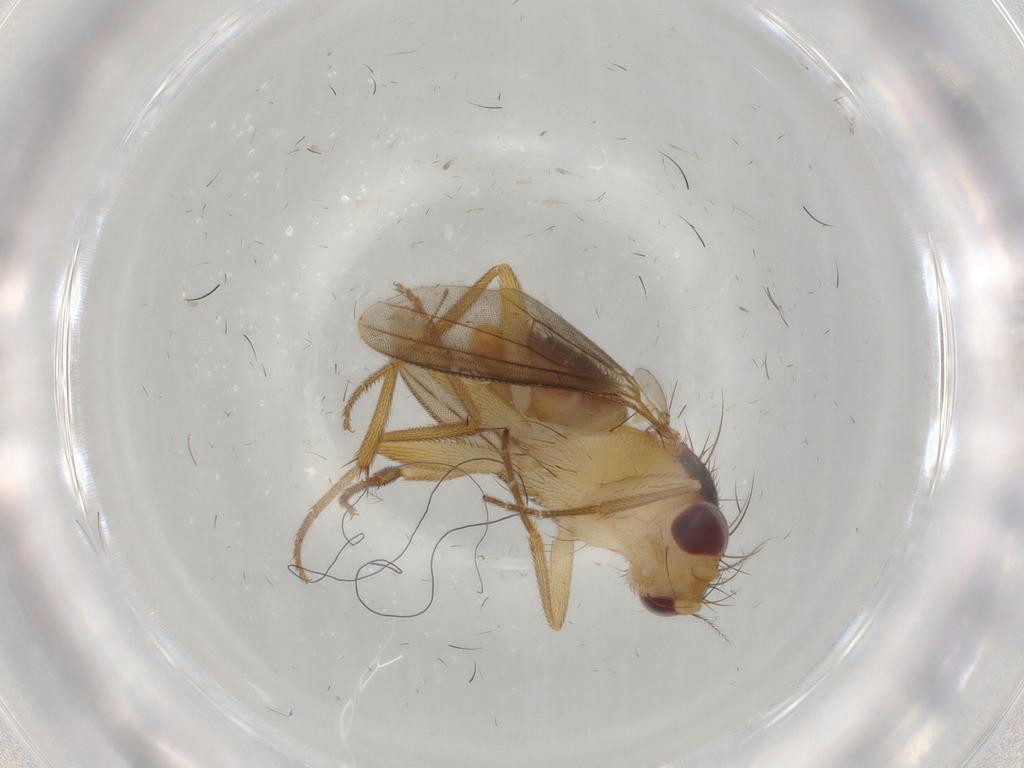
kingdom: Animalia
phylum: Arthropoda
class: Insecta
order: Diptera
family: Clusiidae
